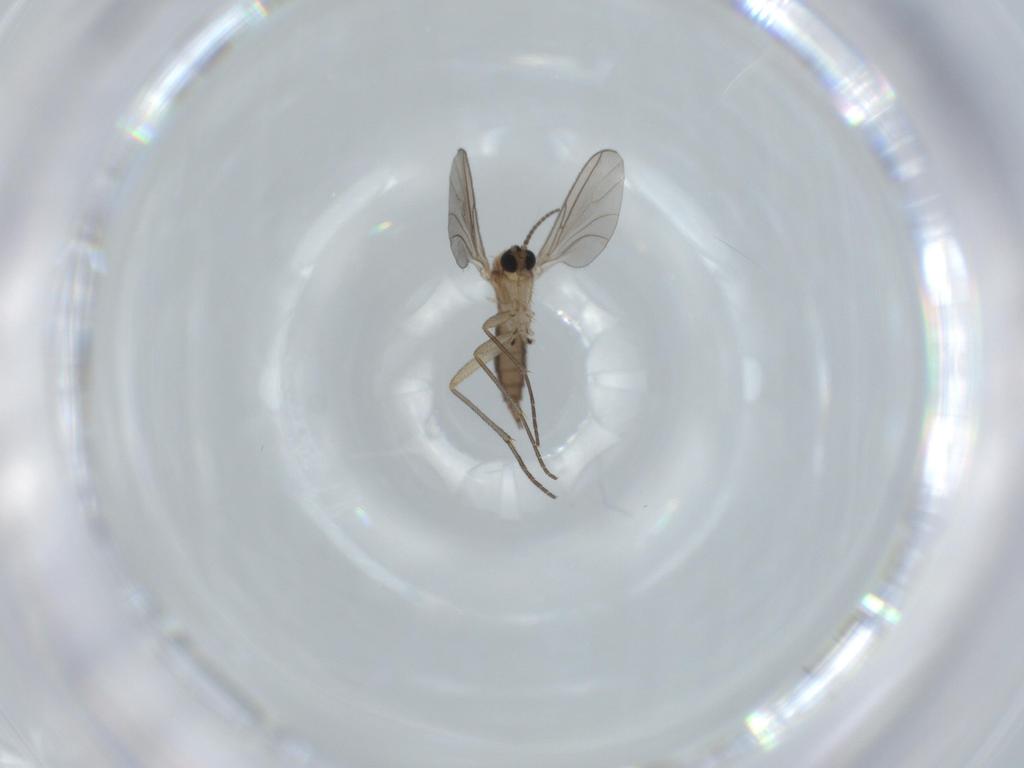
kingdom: Animalia
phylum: Arthropoda
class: Insecta
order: Diptera
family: Sciaridae
